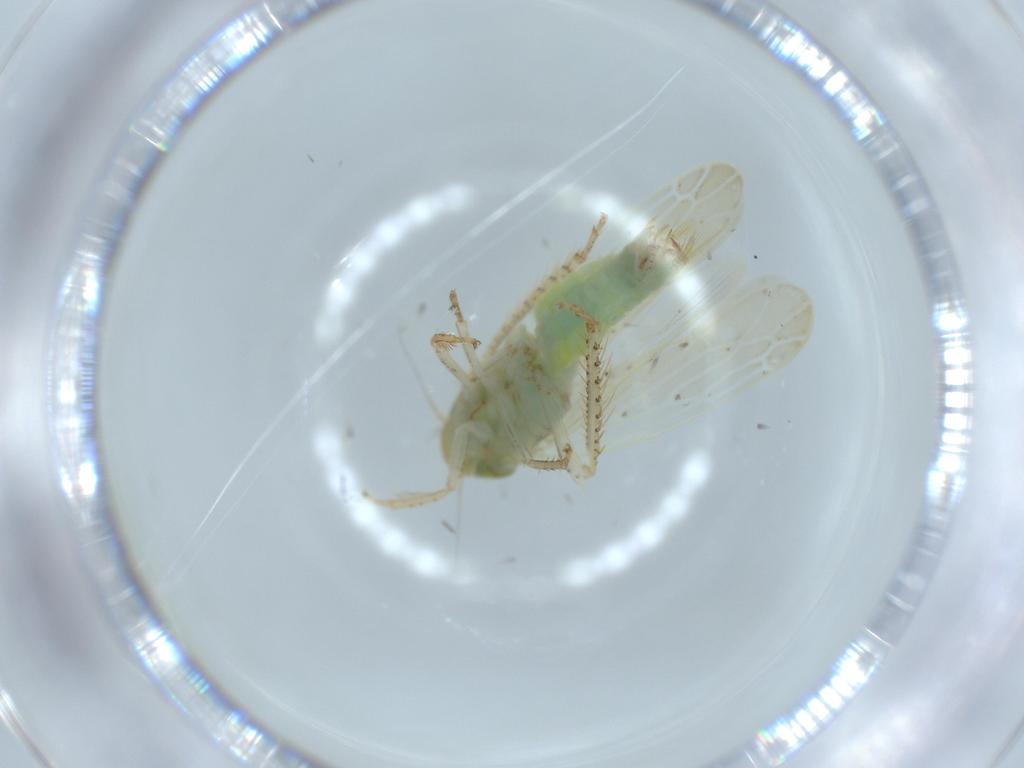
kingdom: Animalia
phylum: Arthropoda
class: Insecta
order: Hemiptera
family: Cicadellidae
